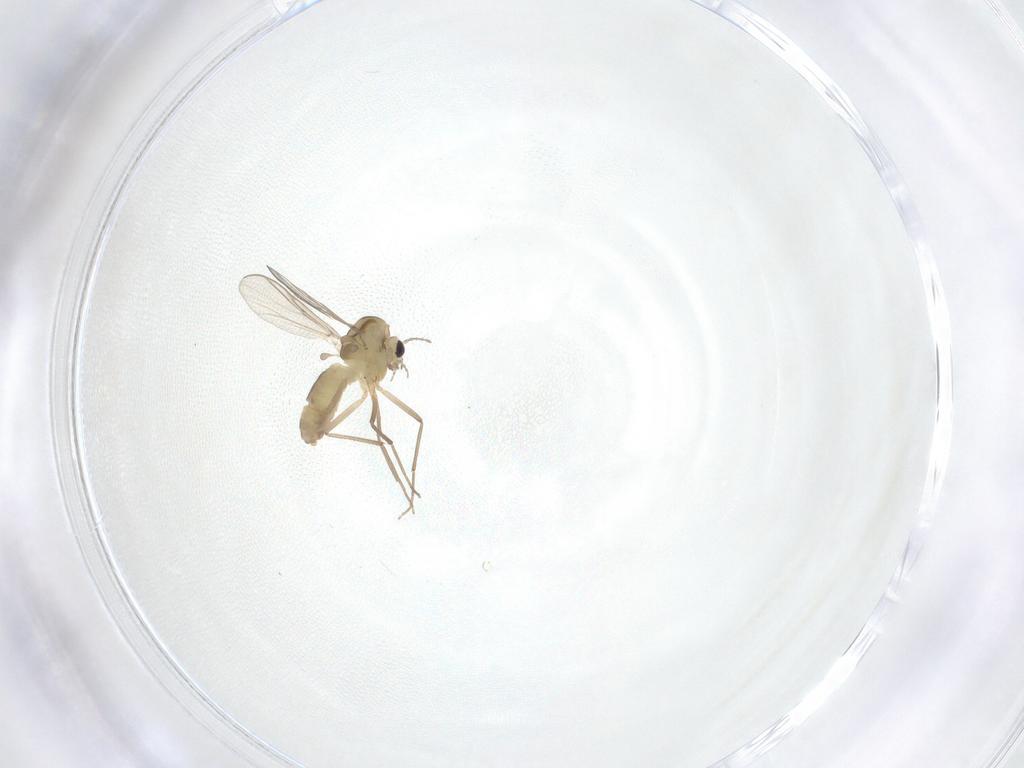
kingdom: Animalia
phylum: Arthropoda
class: Insecta
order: Diptera
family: Chironomidae
